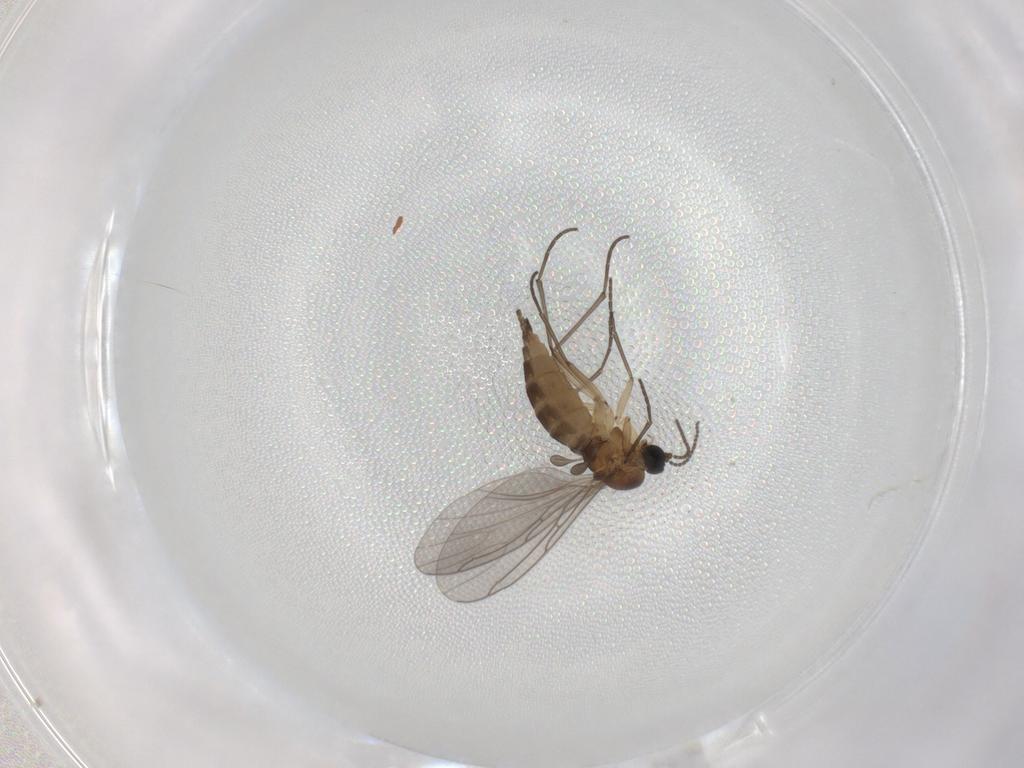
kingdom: Animalia
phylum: Arthropoda
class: Insecta
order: Diptera
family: Sciaridae
